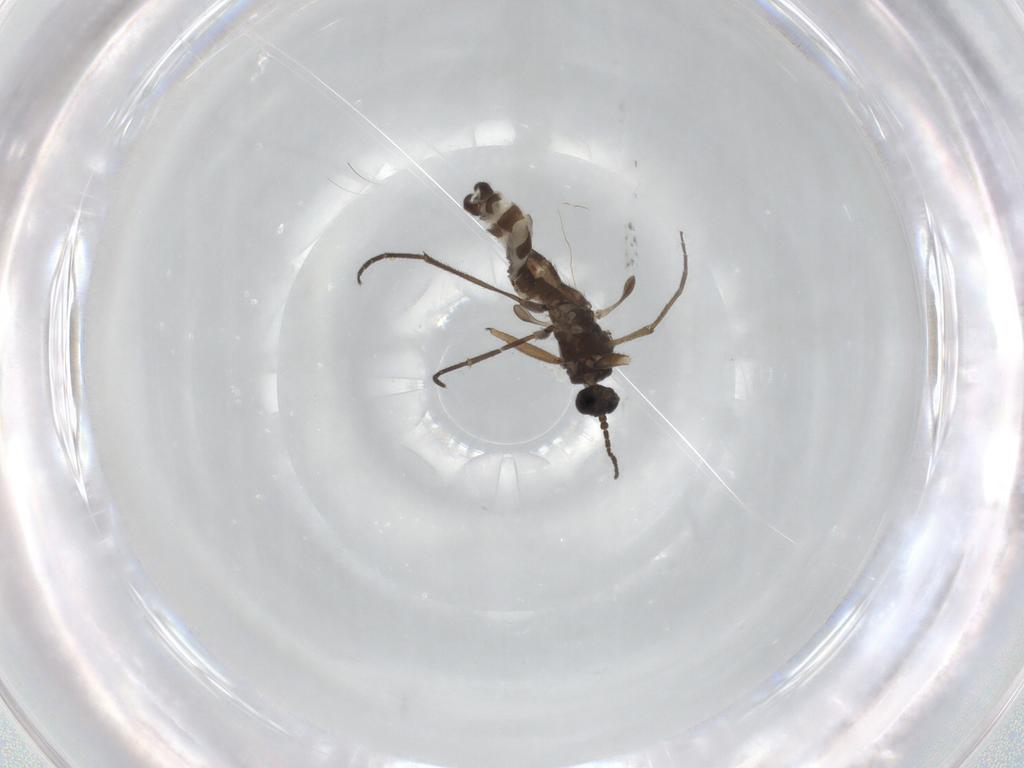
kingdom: Animalia
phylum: Arthropoda
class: Insecta
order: Diptera
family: Sciaridae
